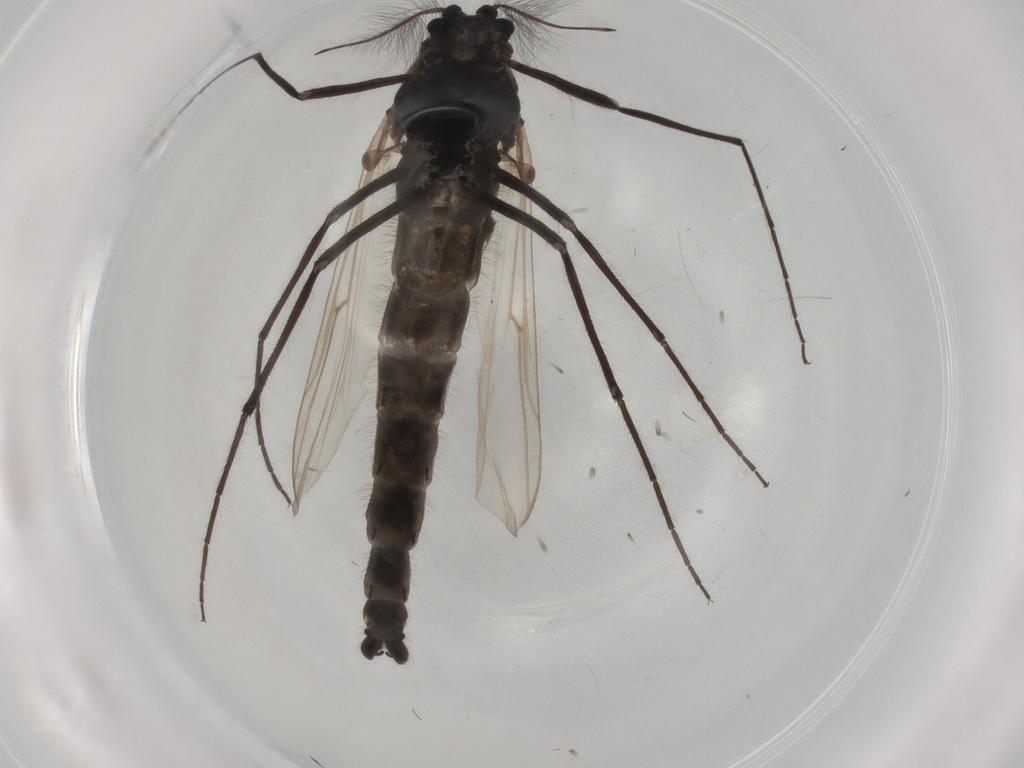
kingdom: Animalia
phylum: Arthropoda
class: Insecta
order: Diptera
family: Chironomidae
